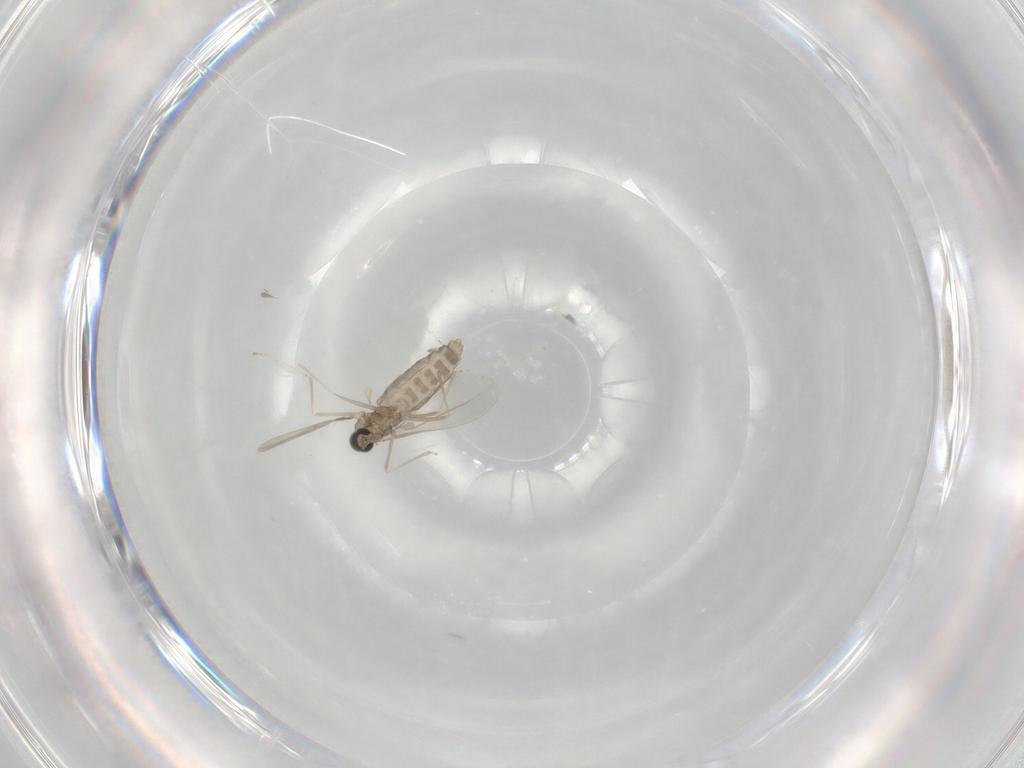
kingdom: Animalia
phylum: Arthropoda
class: Insecta
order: Diptera
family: Cecidomyiidae
